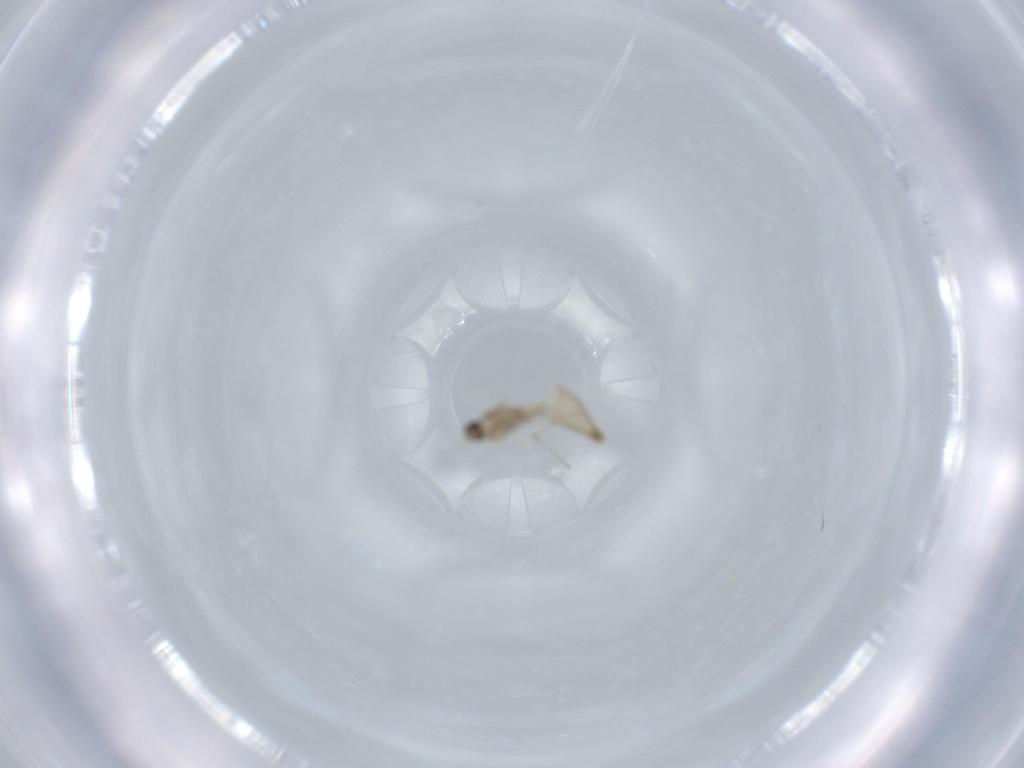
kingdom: Animalia
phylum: Arthropoda
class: Insecta
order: Diptera
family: Cecidomyiidae
